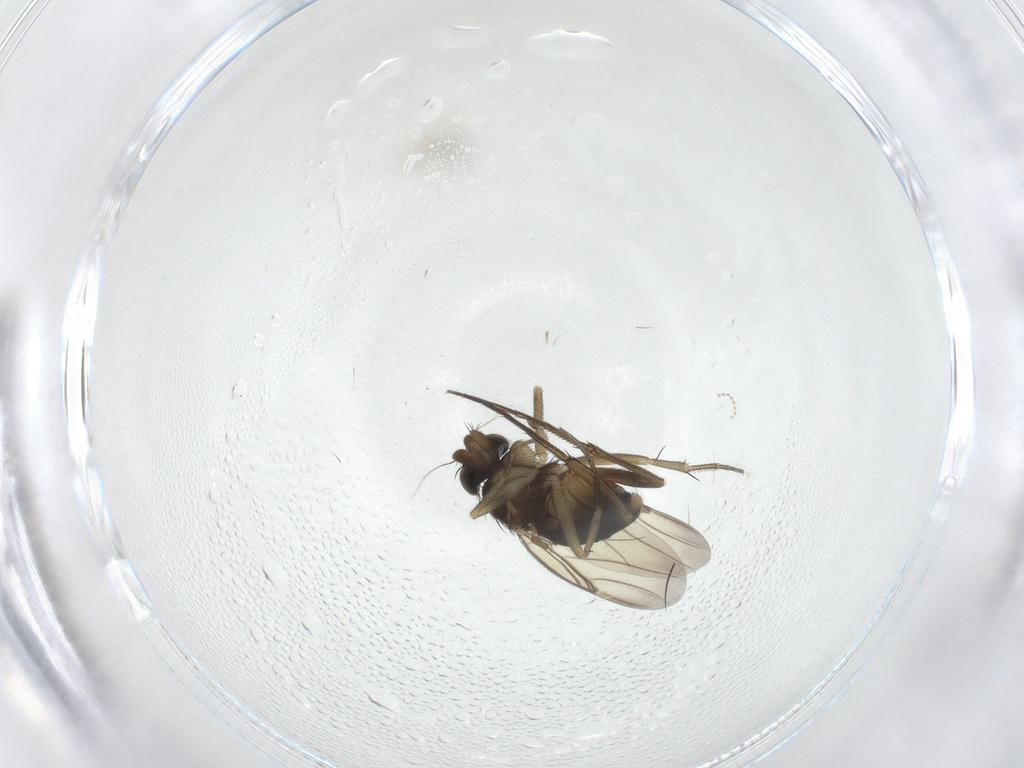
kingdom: Animalia
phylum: Arthropoda
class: Insecta
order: Diptera
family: Phoridae
